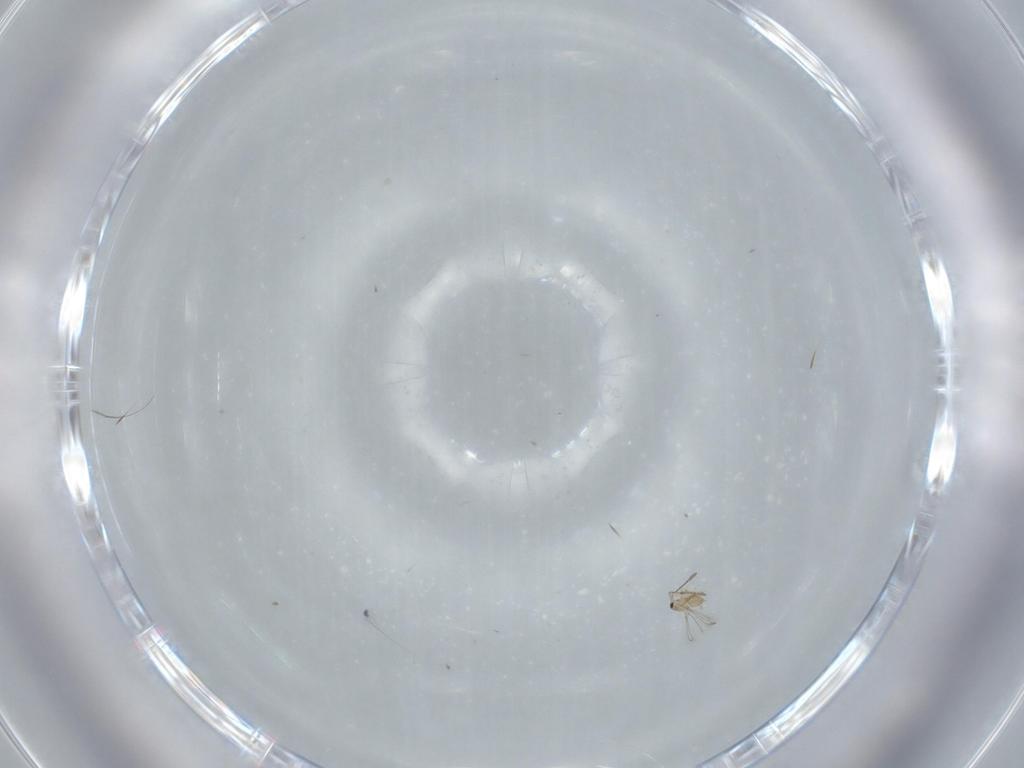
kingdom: Animalia
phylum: Arthropoda
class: Insecta
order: Hymenoptera
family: Mymaridae
